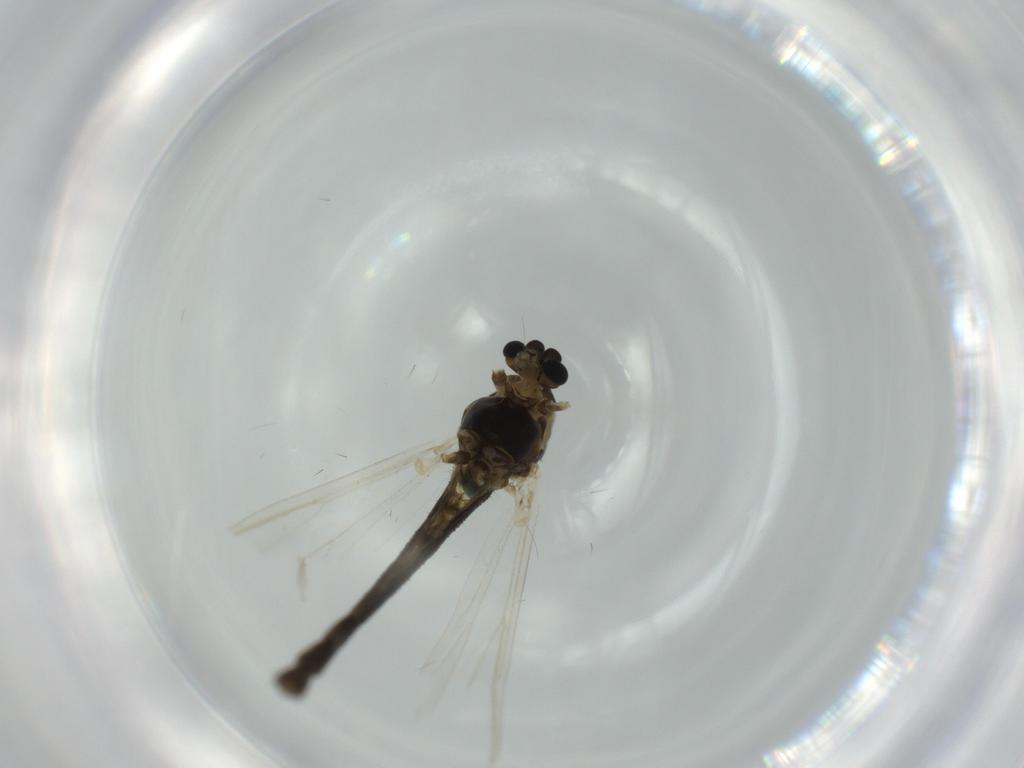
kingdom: Animalia
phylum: Arthropoda
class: Insecta
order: Diptera
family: Chironomidae
